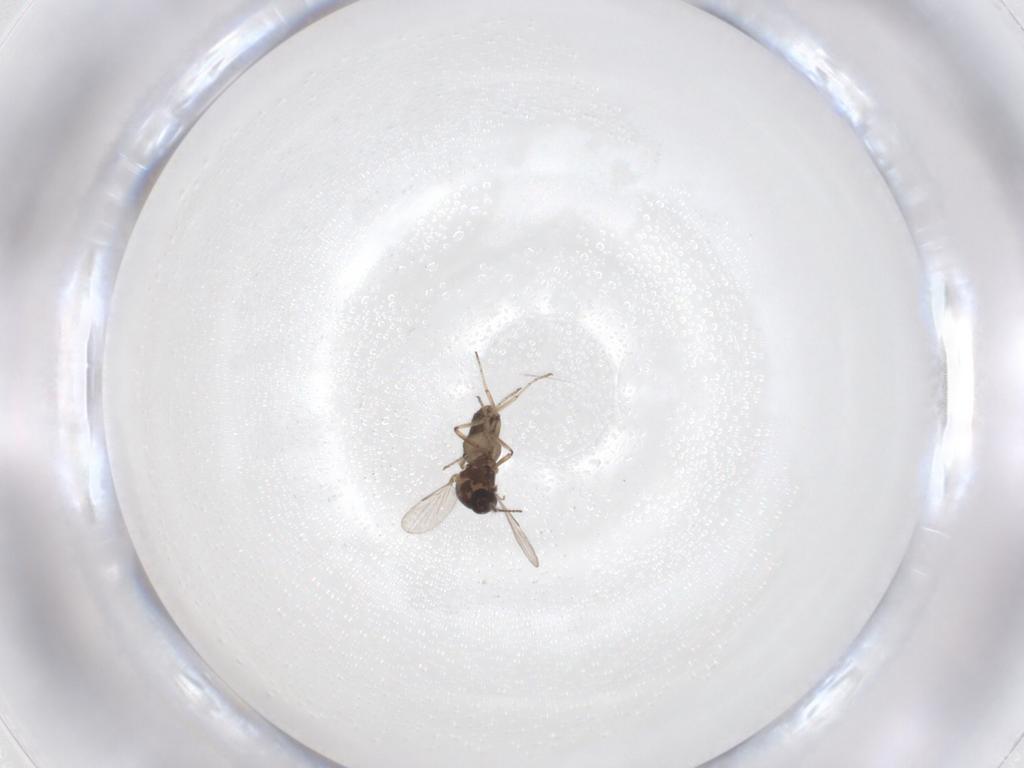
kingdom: Animalia
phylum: Arthropoda
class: Insecta
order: Diptera
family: Ceratopogonidae
